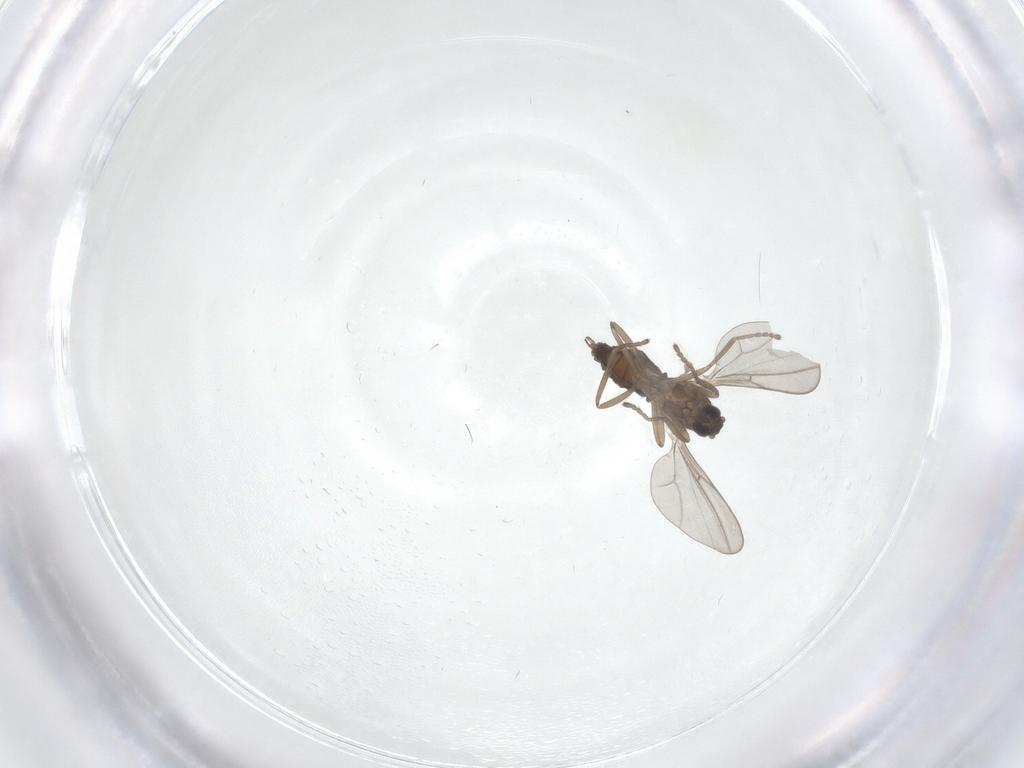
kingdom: Animalia
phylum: Arthropoda
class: Insecta
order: Diptera
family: Cecidomyiidae
